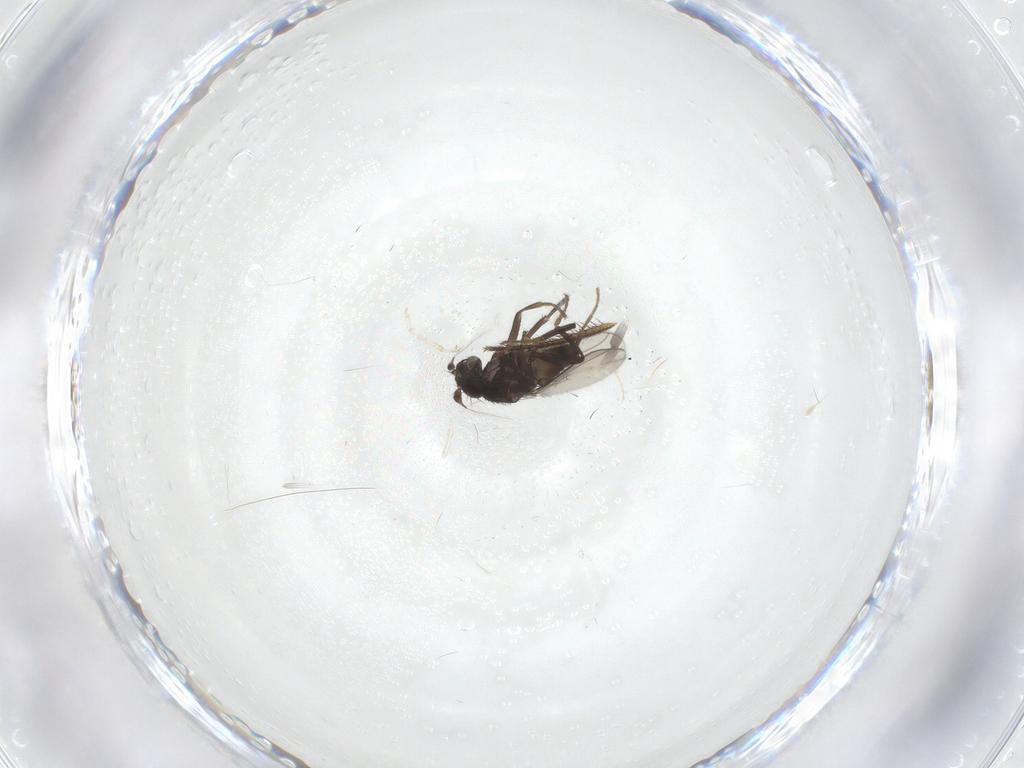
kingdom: Animalia
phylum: Arthropoda
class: Insecta
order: Diptera
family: Sphaeroceridae
